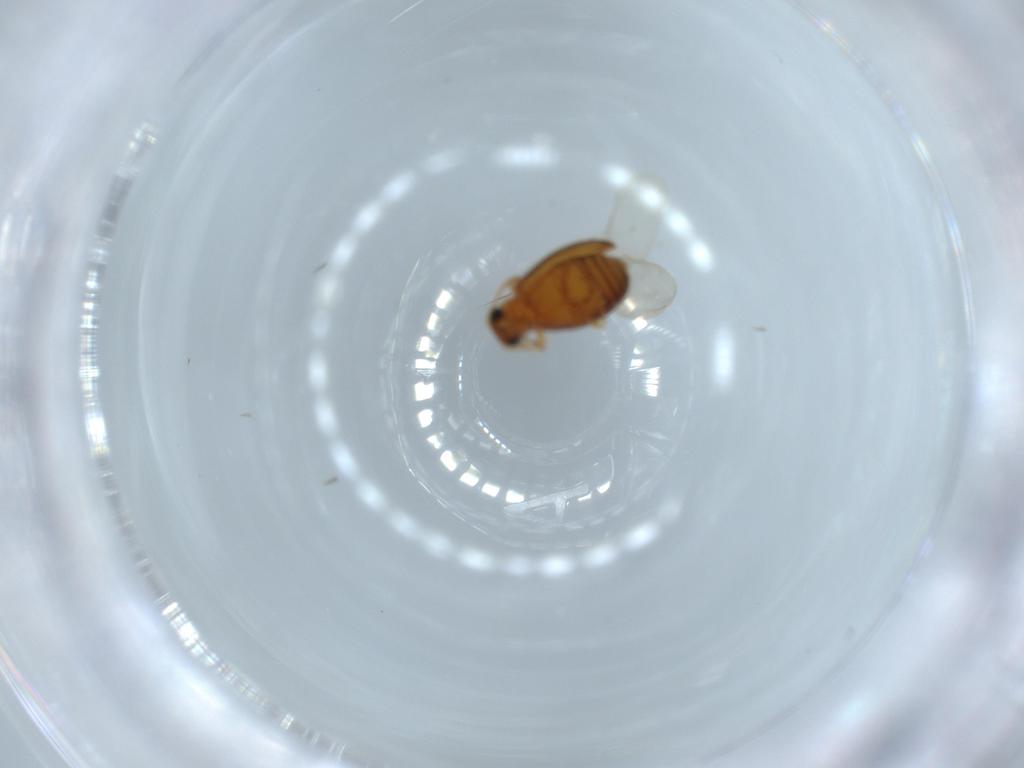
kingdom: Animalia
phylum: Arthropoda
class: Insecta
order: Coleoptera
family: Aderidae
